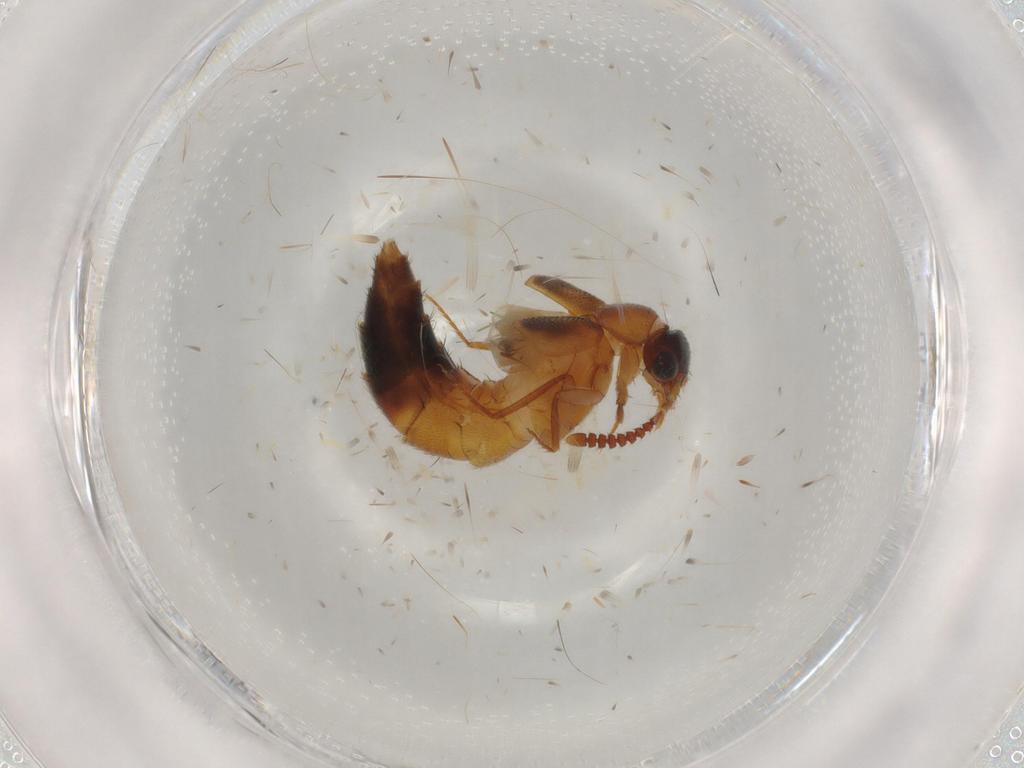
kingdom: Animalia
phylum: Arthropoda
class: Insecta
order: Coleoptera
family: Staphylinidae
